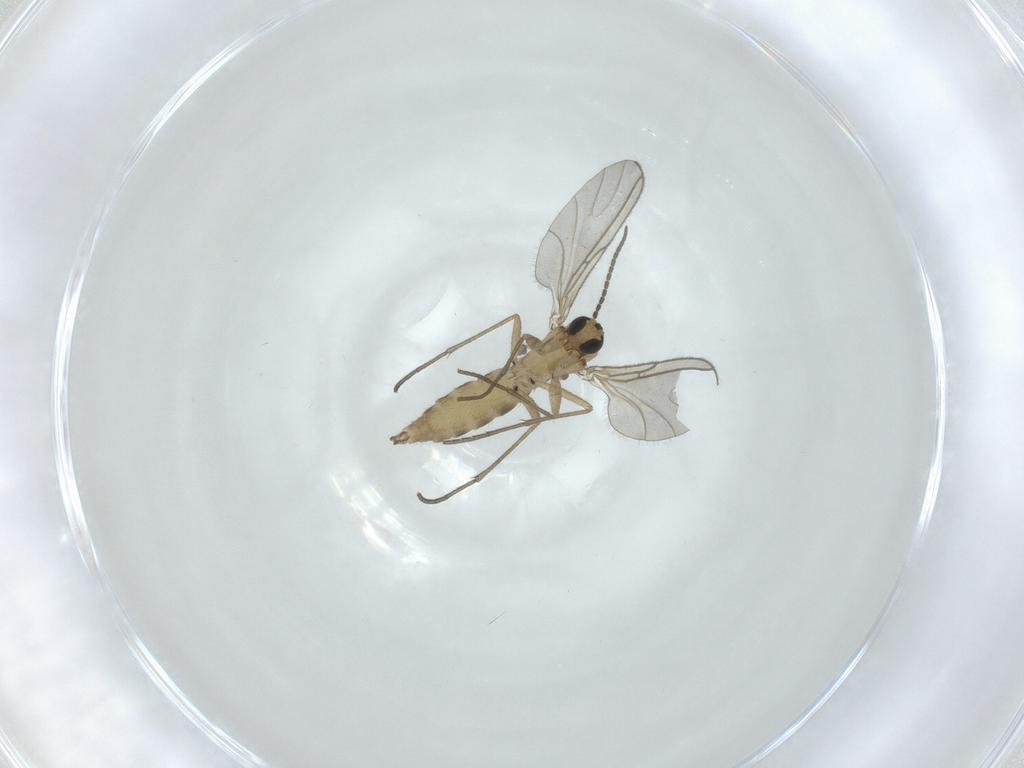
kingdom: Animalia
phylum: Arthropoda
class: Insecta
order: Diptera
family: Sciaridae
